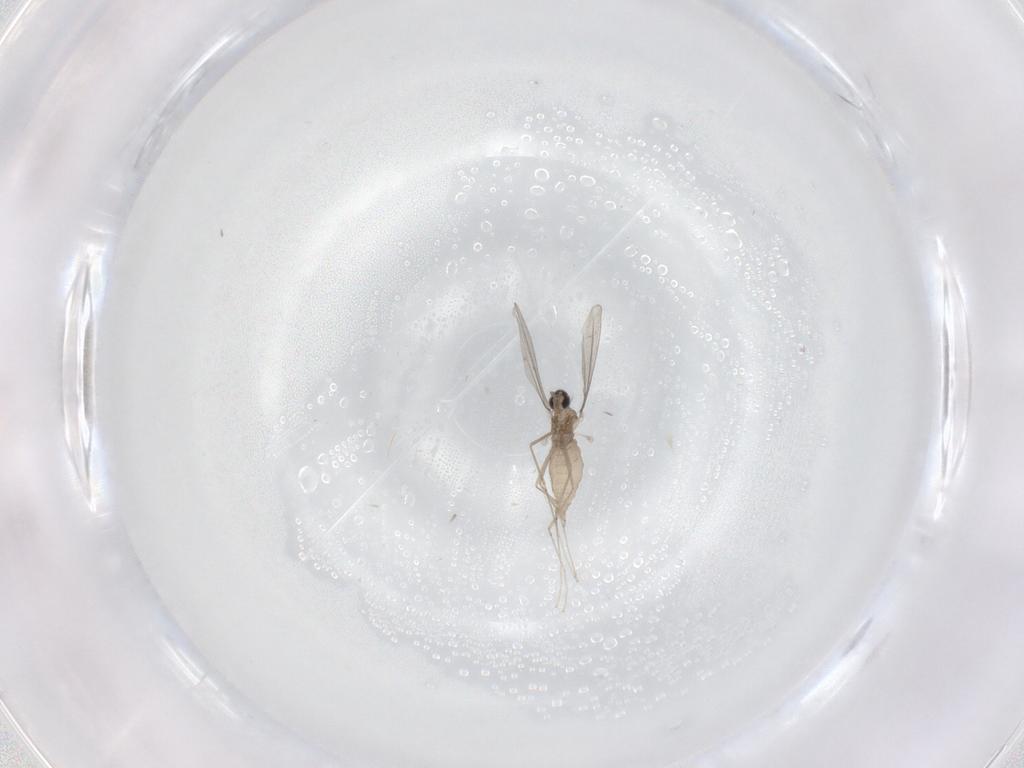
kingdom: Animalia
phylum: Arthropoda
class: Insecta
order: Diptera
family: Cecidomyiidae
